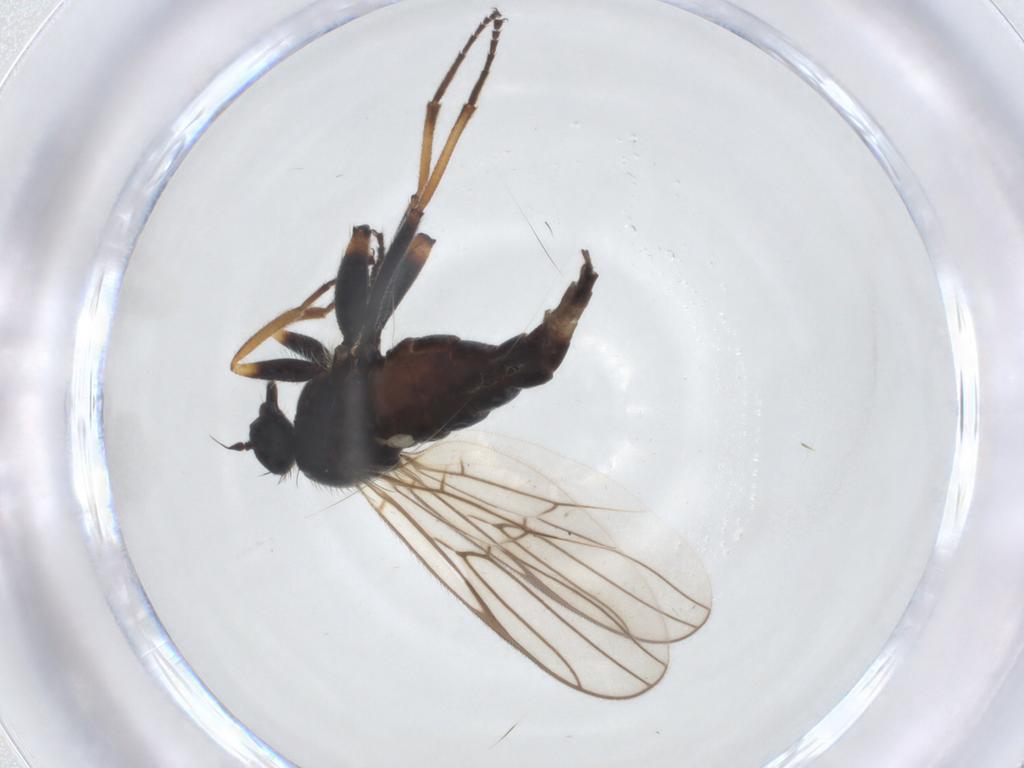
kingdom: Animalia
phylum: Arthropoda
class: Insecta
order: Diptera
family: Hybotidae
